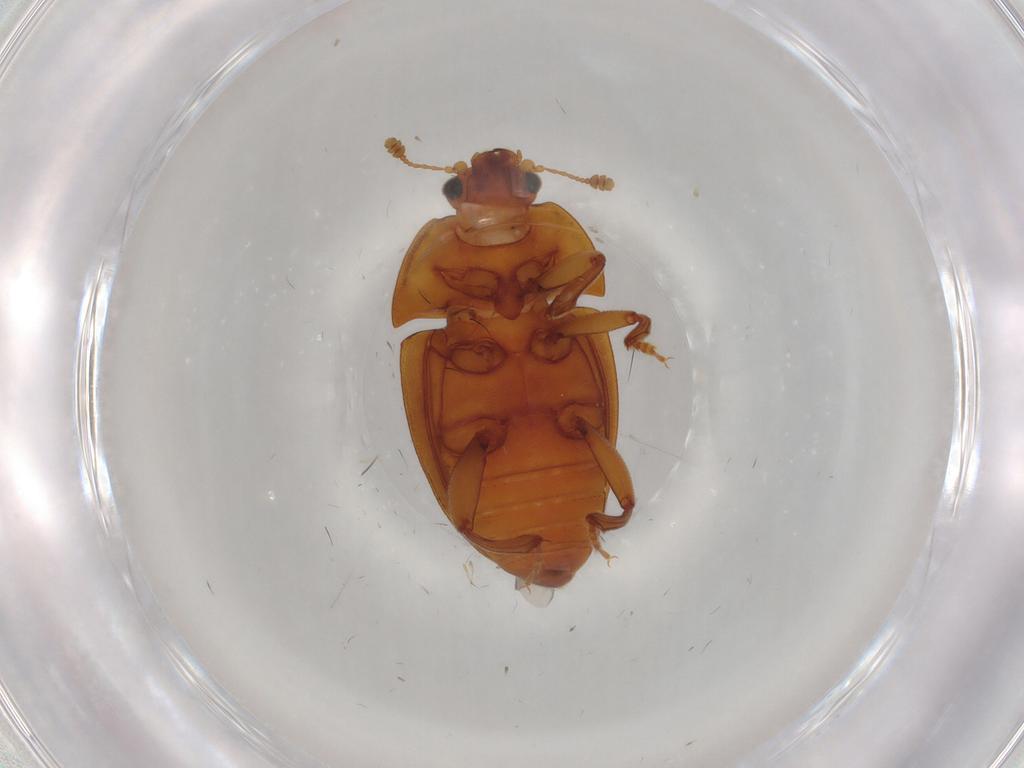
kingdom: Animalia
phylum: Arthropoda
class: Insecta
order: Coleoptera
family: Nitidulidae
